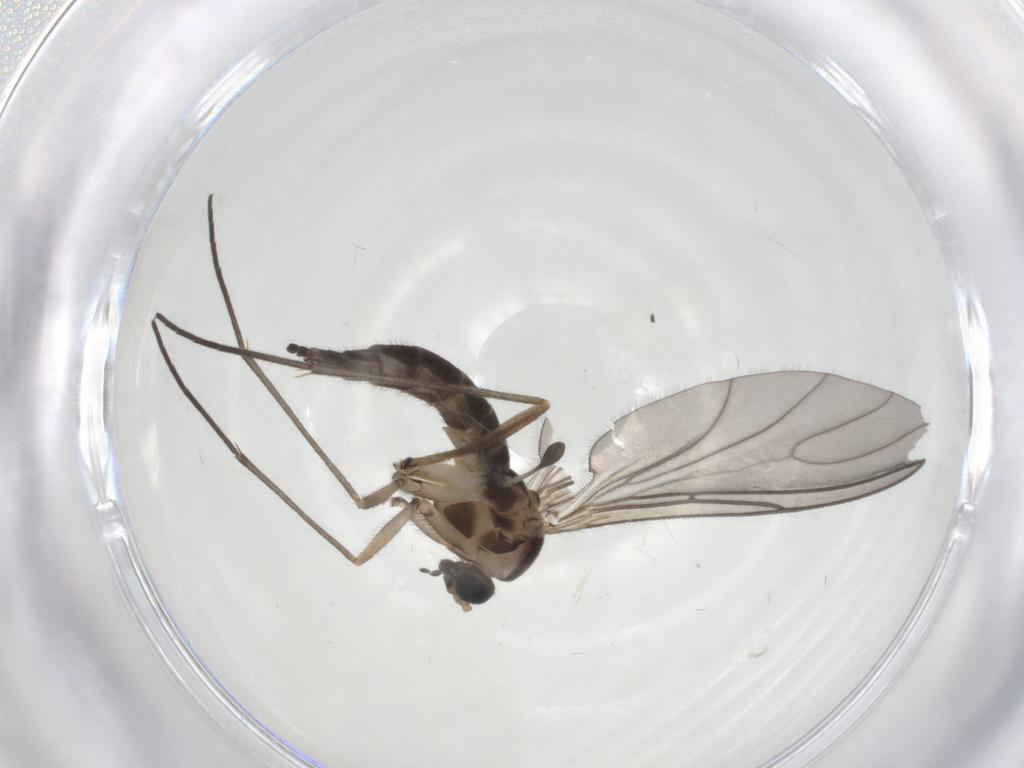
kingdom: Animalia
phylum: Arthropoda
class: Insecta
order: Diptera
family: Sciaridae
